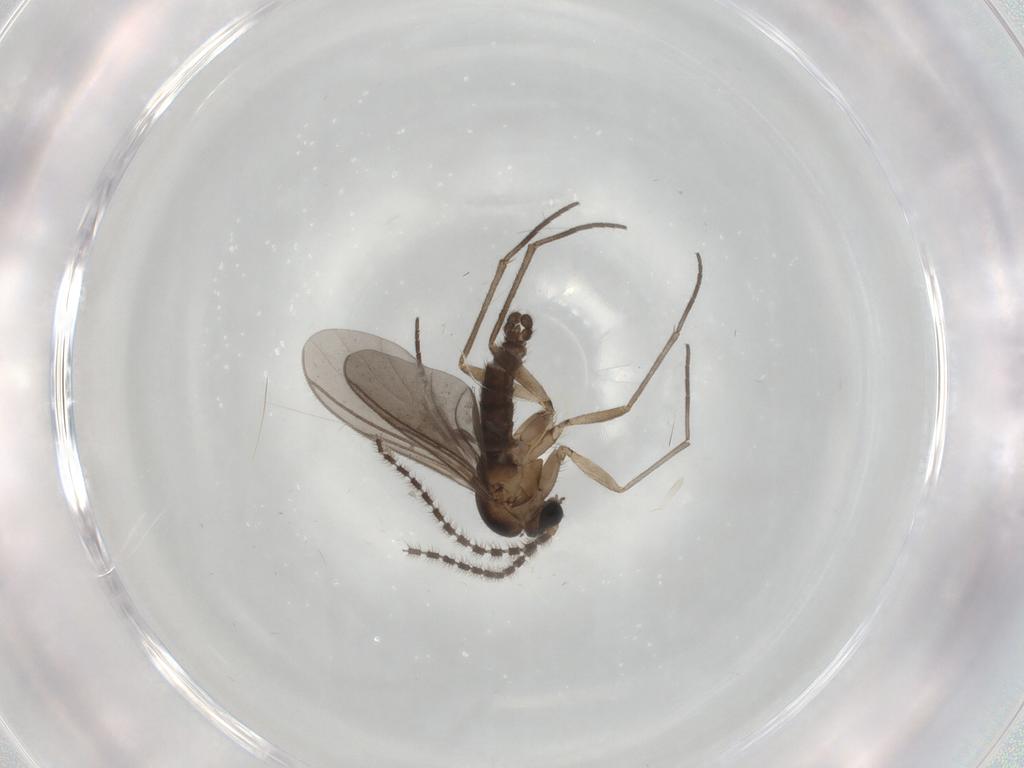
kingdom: Animalia
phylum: Arthropoda
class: Insecta
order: Diptera
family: Sciaridae
